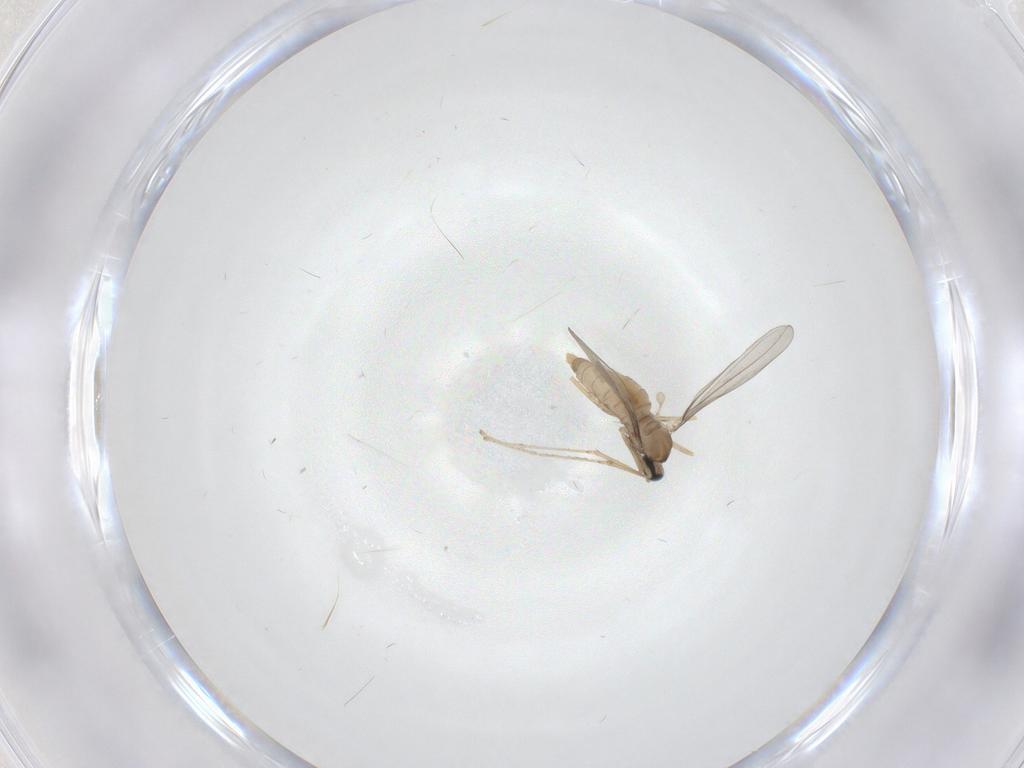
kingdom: Animalia
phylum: Arthropoda
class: Insecta
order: Diptera
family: Cecidomyiidae
